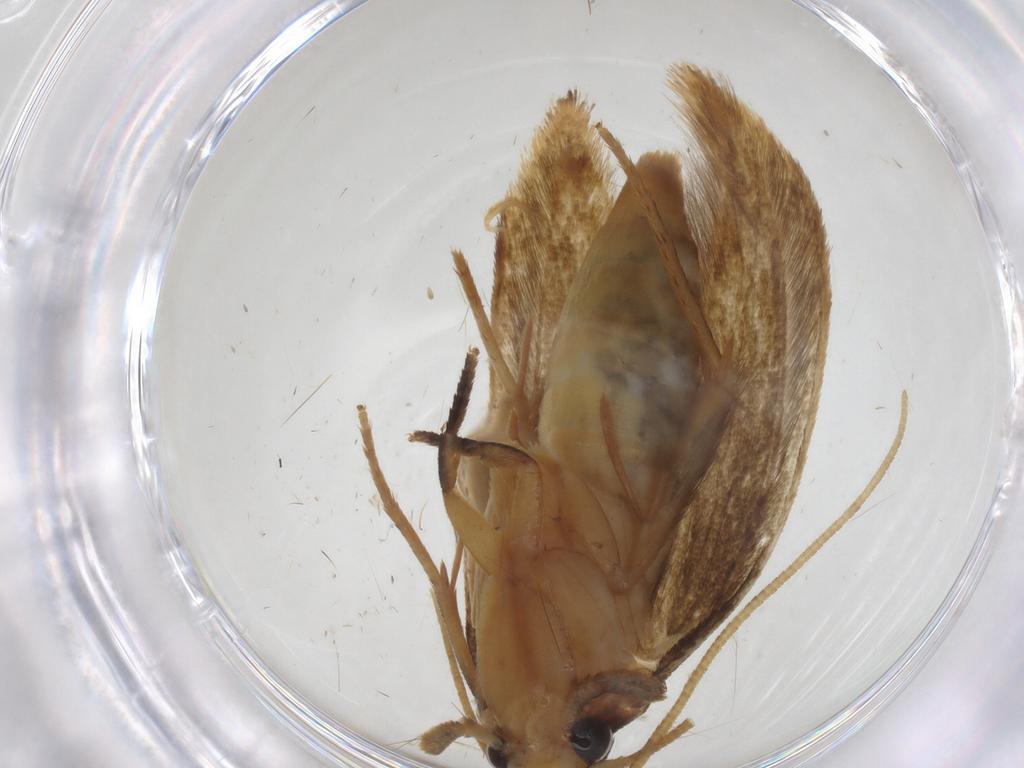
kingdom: Animalia
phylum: Arthropoda
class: Insecta
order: Lepidoptera
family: Tineidae
